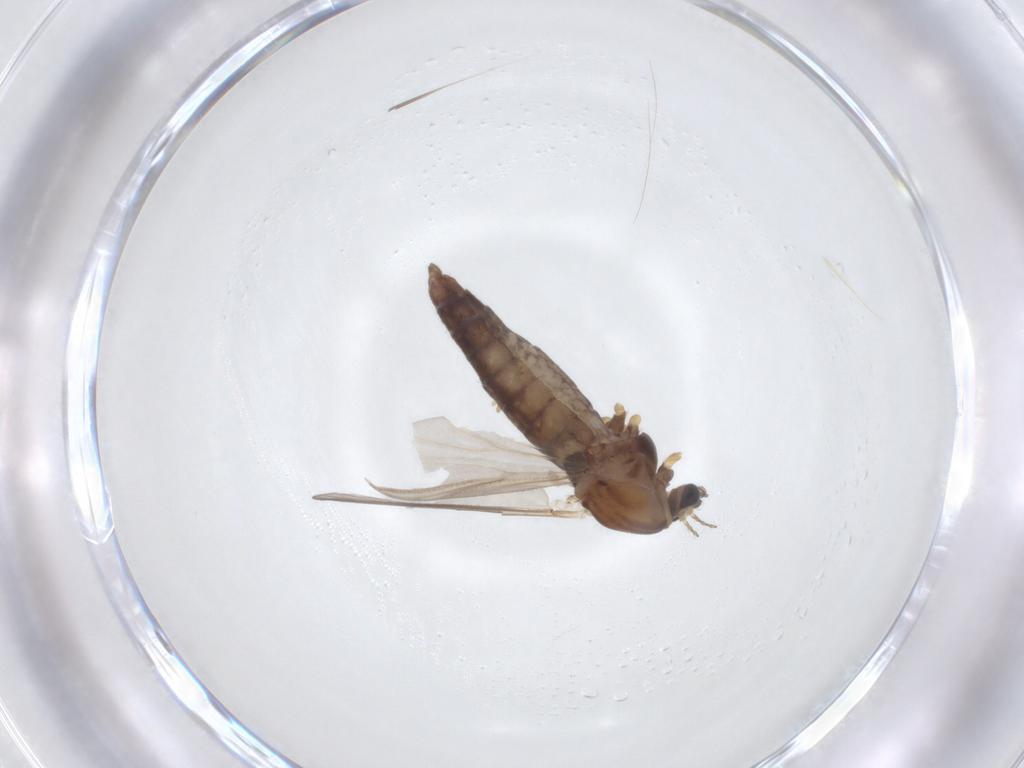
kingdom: Animalia
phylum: Arthropoda
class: Insecta
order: Diptera
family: Chironomidae
